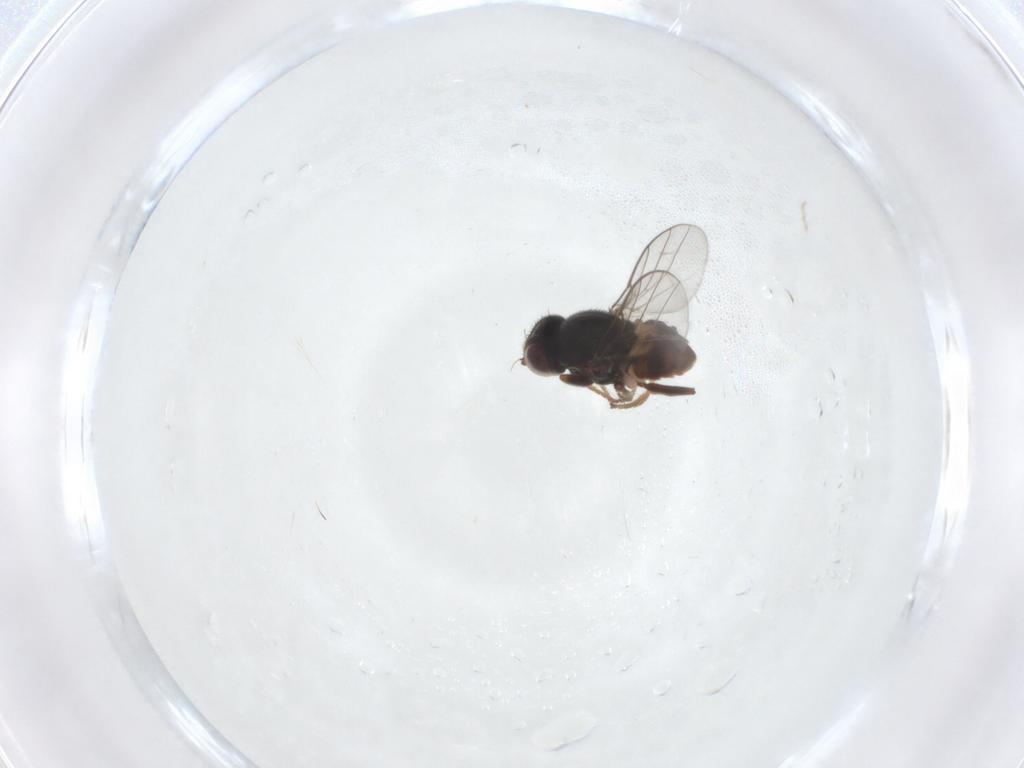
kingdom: Animalia
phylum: Arthropoda
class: Insecta
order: Diptera
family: Chloropidae
